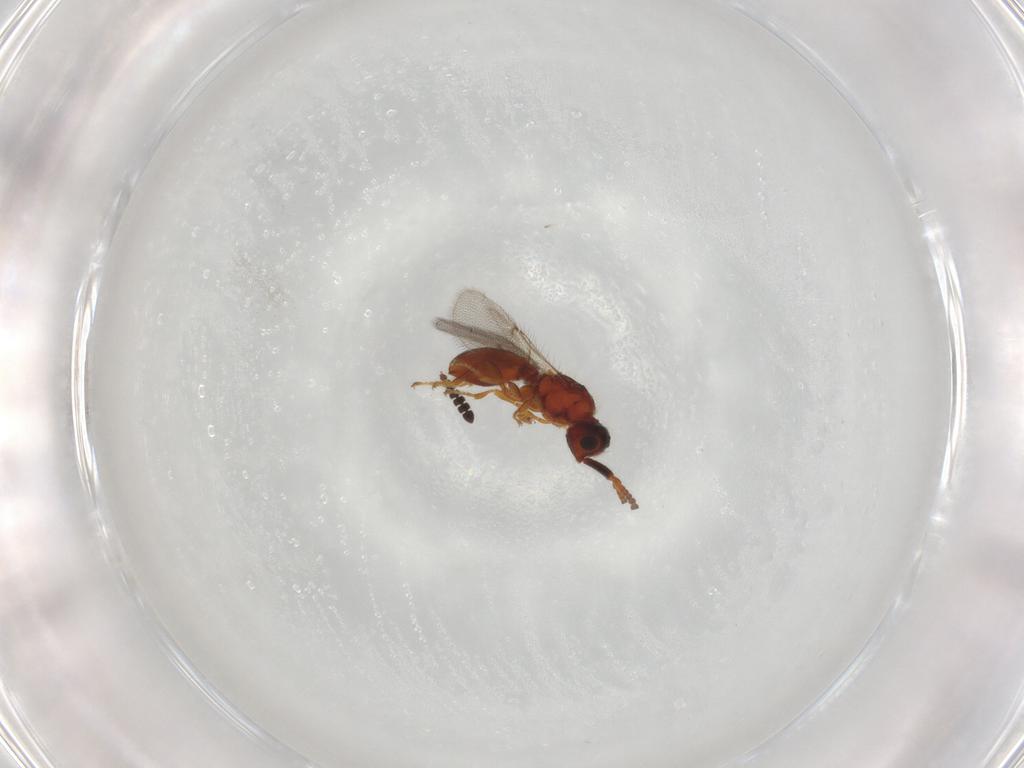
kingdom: Animalia
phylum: Arthropoda
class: Insecta
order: Hymenoptera
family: Diapriidae
